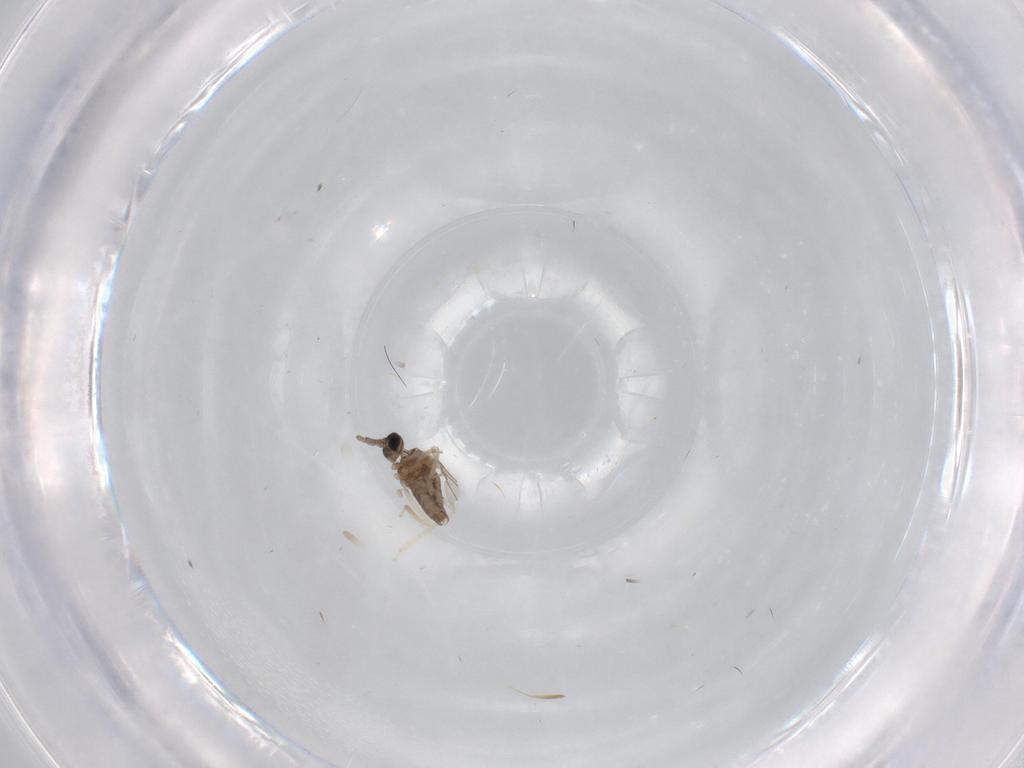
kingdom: Animalia
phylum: Arthropoda
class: Insecta
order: Diptera
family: Cecidomyiidae
